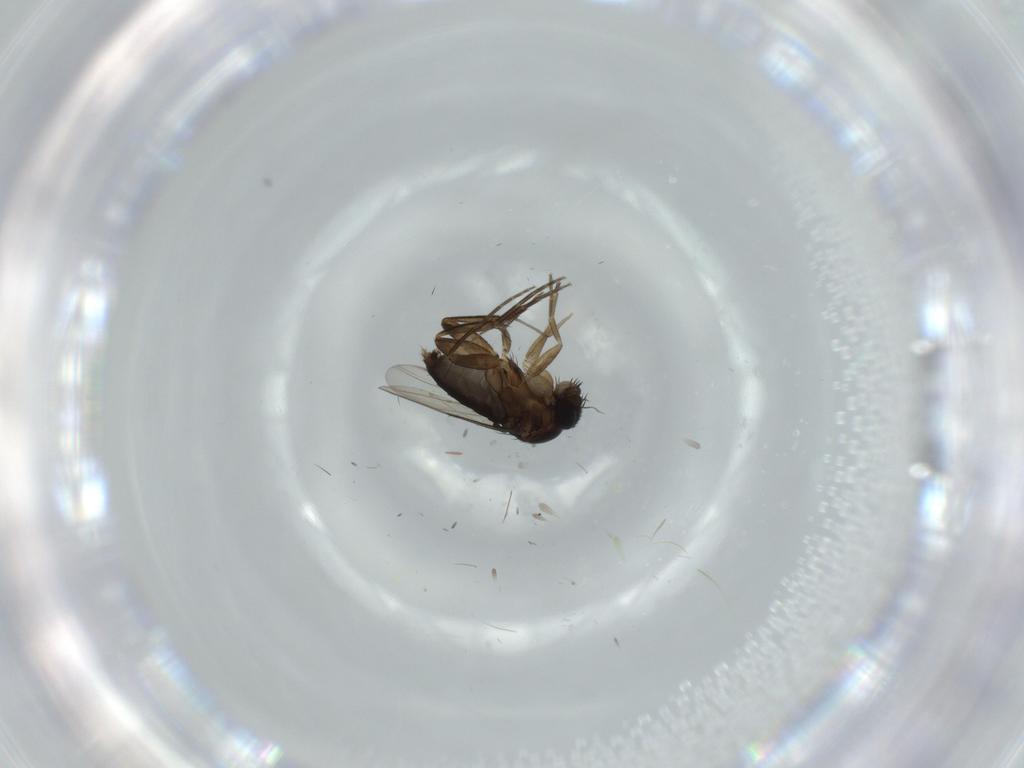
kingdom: Animalia
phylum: Arthropoda
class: Insecta
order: Diptera
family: Chironomidae
